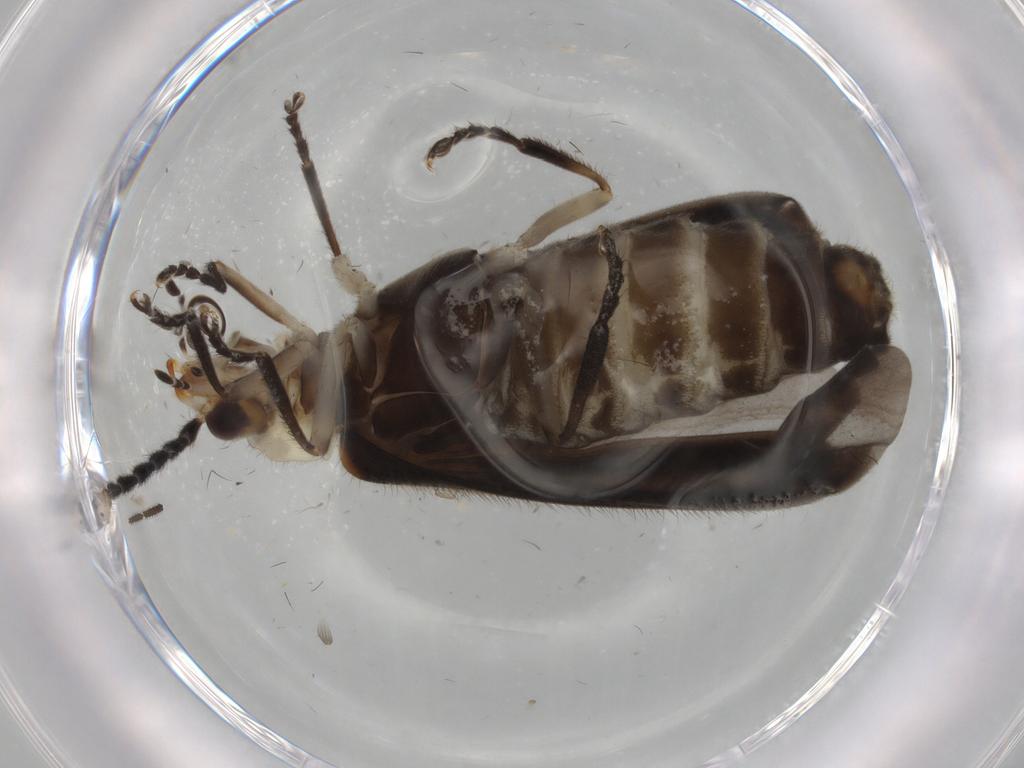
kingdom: Animalia
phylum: Arthropoda
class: Insecta
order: Coleoptera
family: Cantharidae
